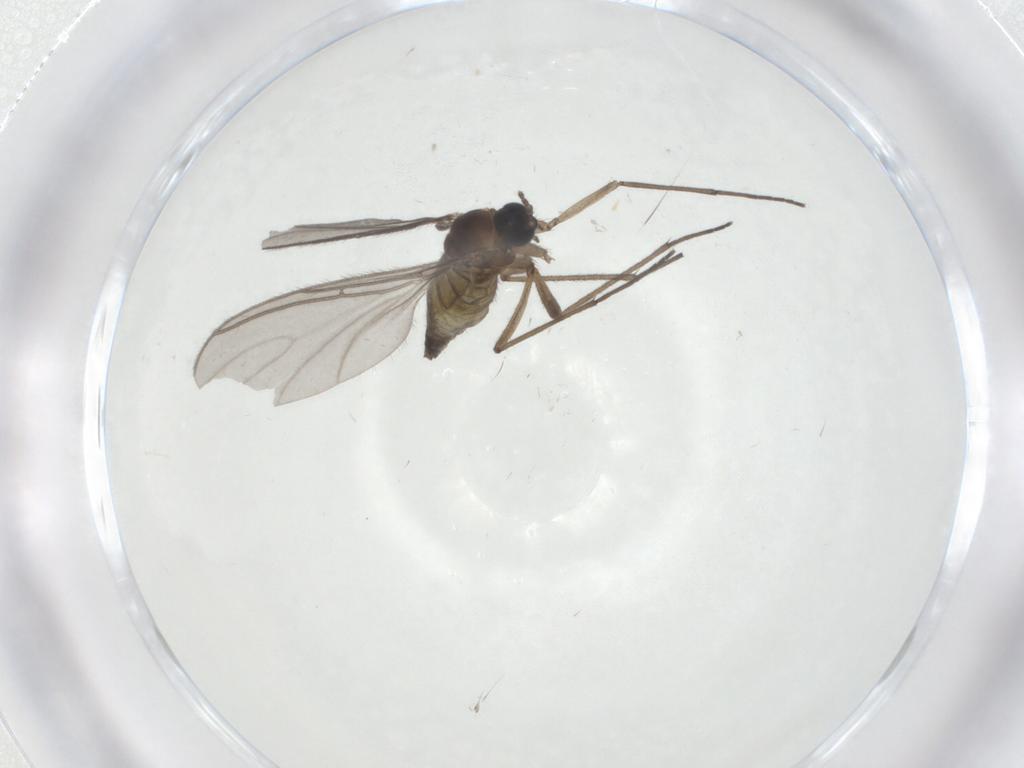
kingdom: Animalia
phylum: Arthropoda
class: Insecta
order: Diptera
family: Sciaridae
